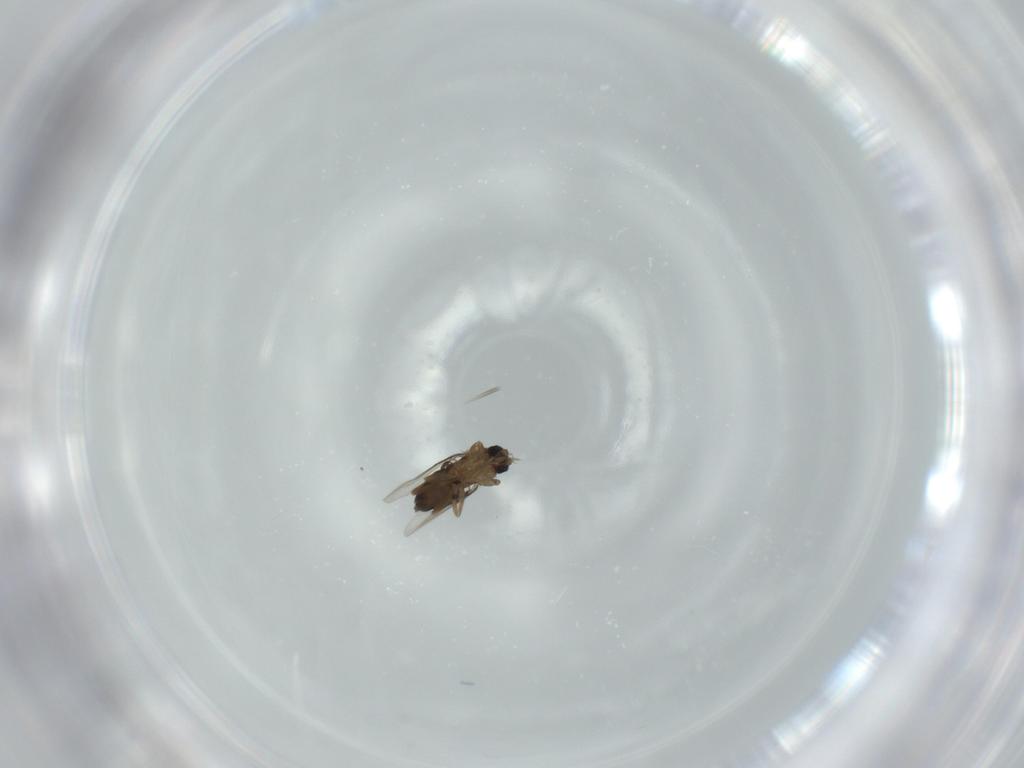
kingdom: Animalia
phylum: Arthropoda
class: Insecta
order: Diptera
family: Phoridae
